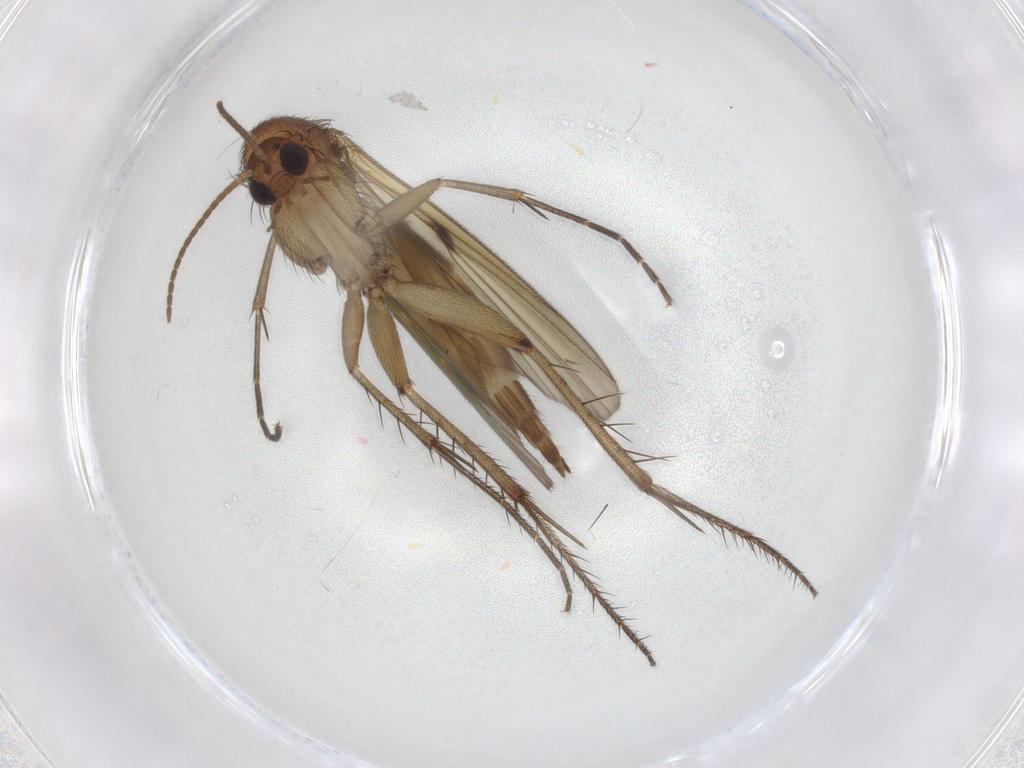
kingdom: Animalia
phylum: Arthropoda
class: Insecta
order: Diptera
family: Mycetophilidae
